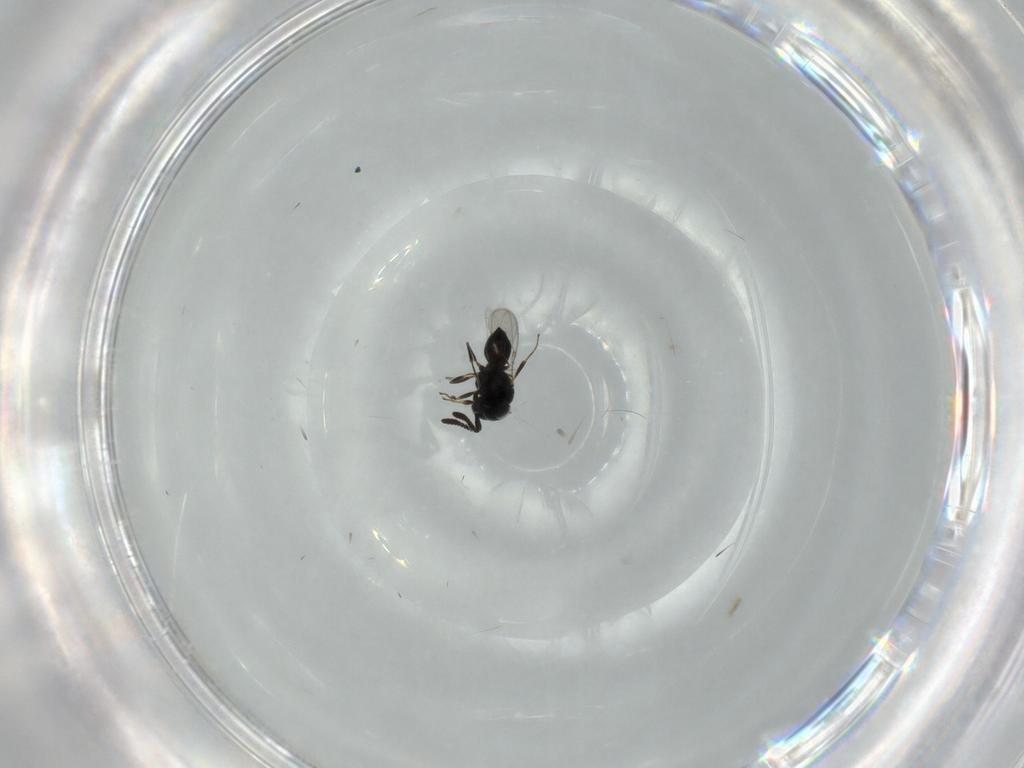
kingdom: Animalia
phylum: Arthropoda
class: Insecta
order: Hymenoptera
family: Scelionidae
